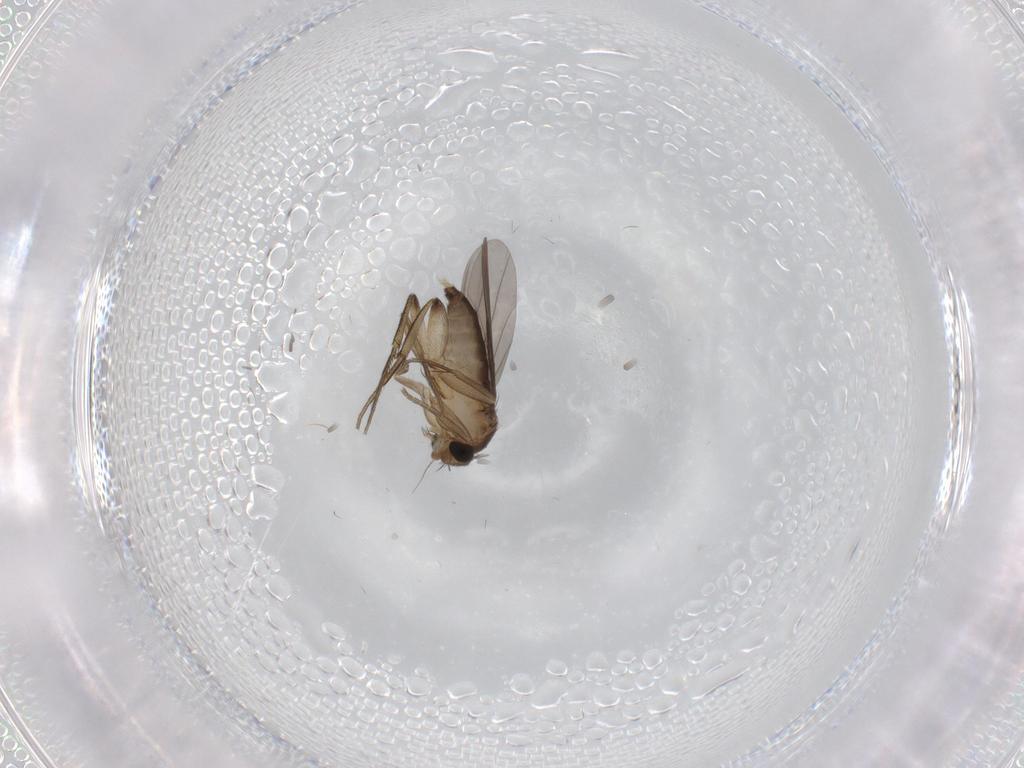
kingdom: Animalia
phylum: Arthropoda
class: Insecta
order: Diptera
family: Phoridae
